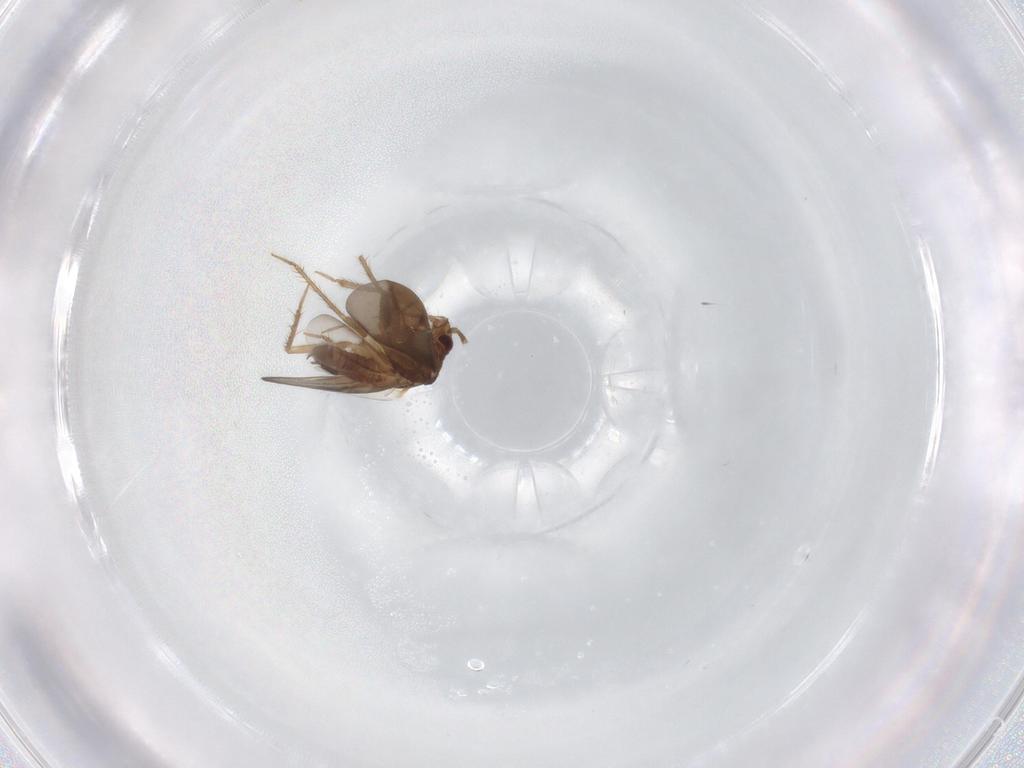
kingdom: Animalia
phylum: Arthropoda
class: Insecta
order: Hemiptera
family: Ceratocombidae
